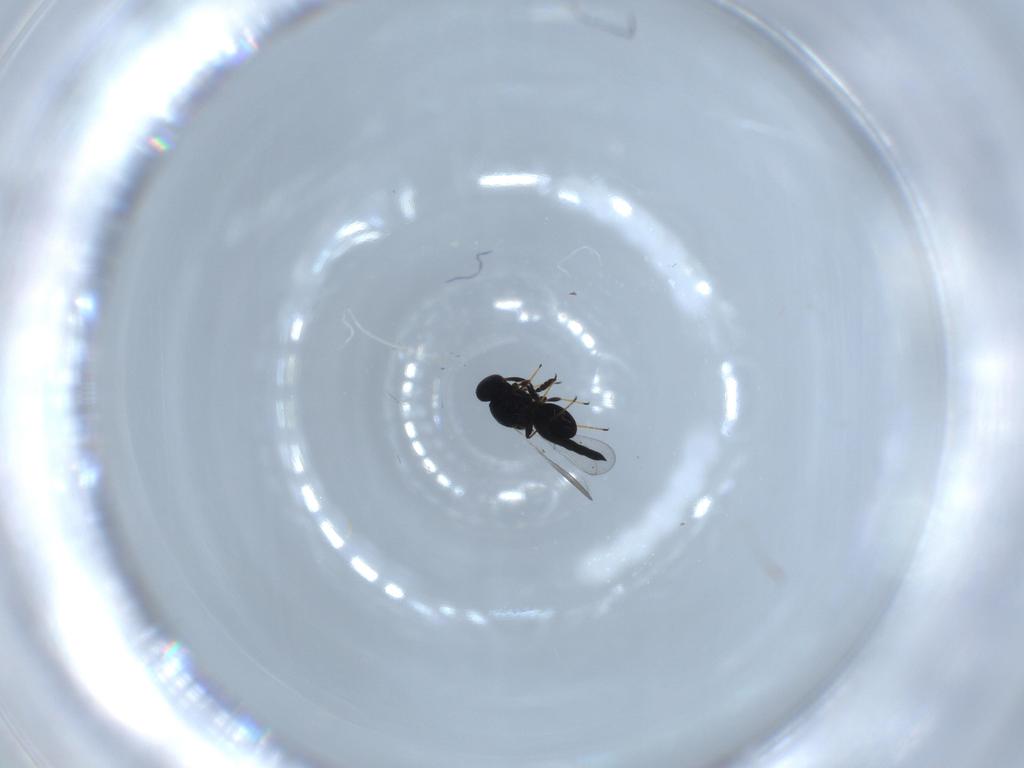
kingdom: Animalia
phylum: Arthropoda
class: Insecta
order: Hymenoptera
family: Platygastridae
